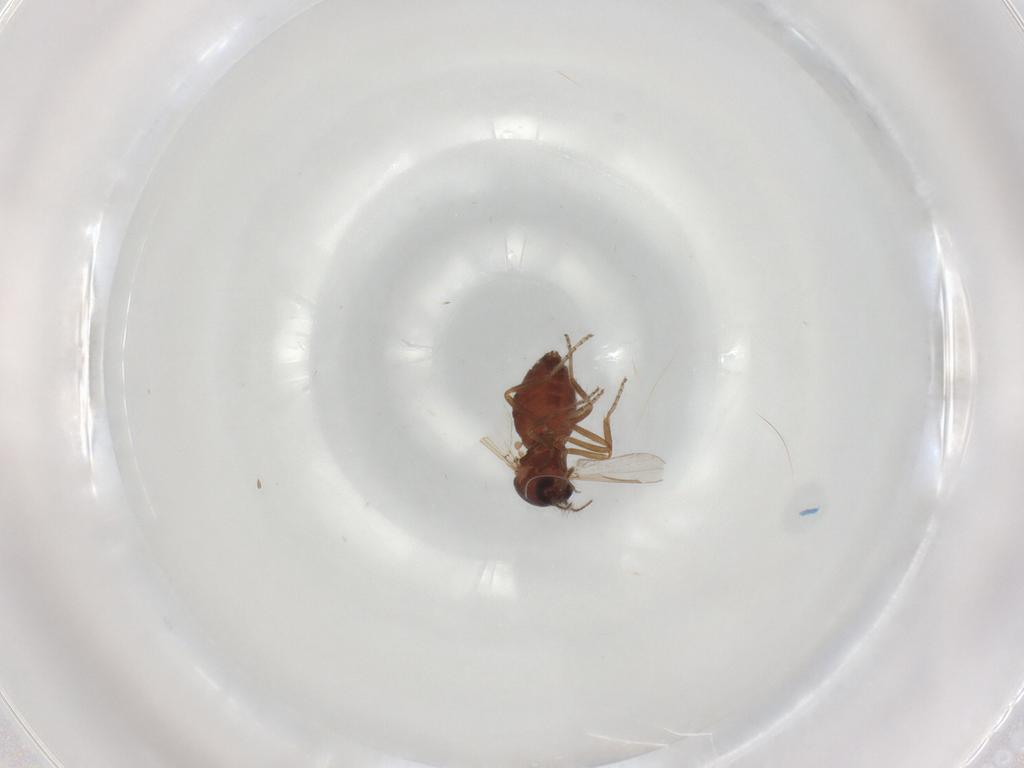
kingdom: Animalia
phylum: Arthropoda
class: Insecta
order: Diptera
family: Ceratopogonidae
